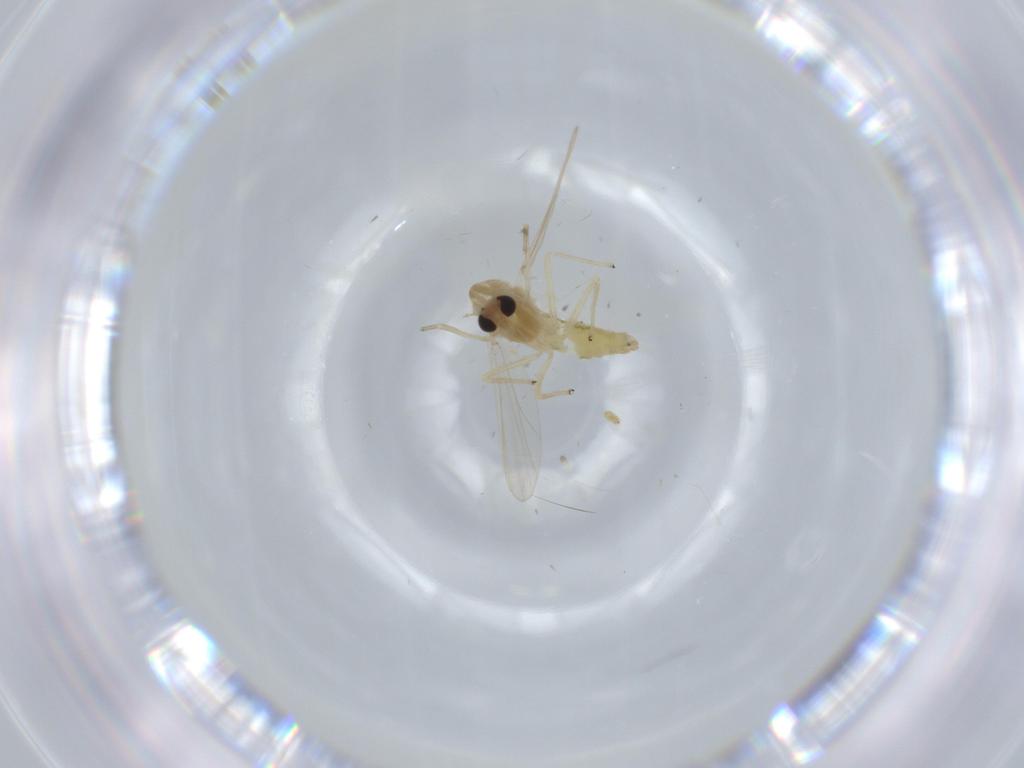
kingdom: Animalia
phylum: Arthropoda
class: Insecta
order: Diptera
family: Chironomidae
